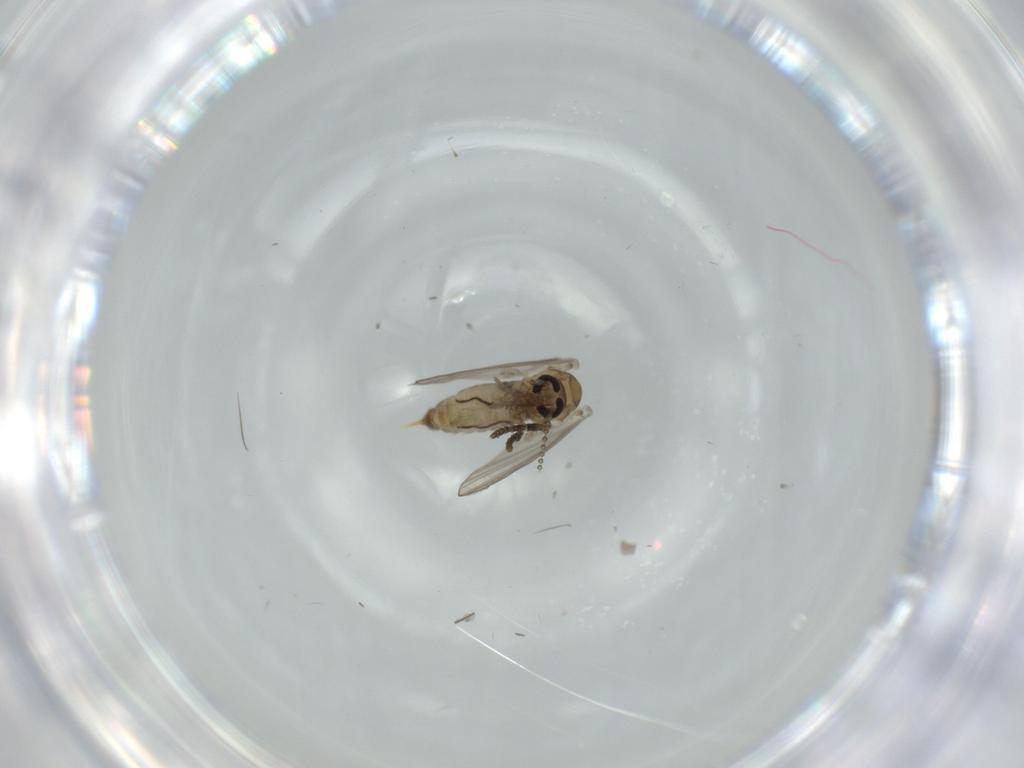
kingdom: Animalia
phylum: Arthropoda
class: Insecta
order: Diptera
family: Psychodidae
